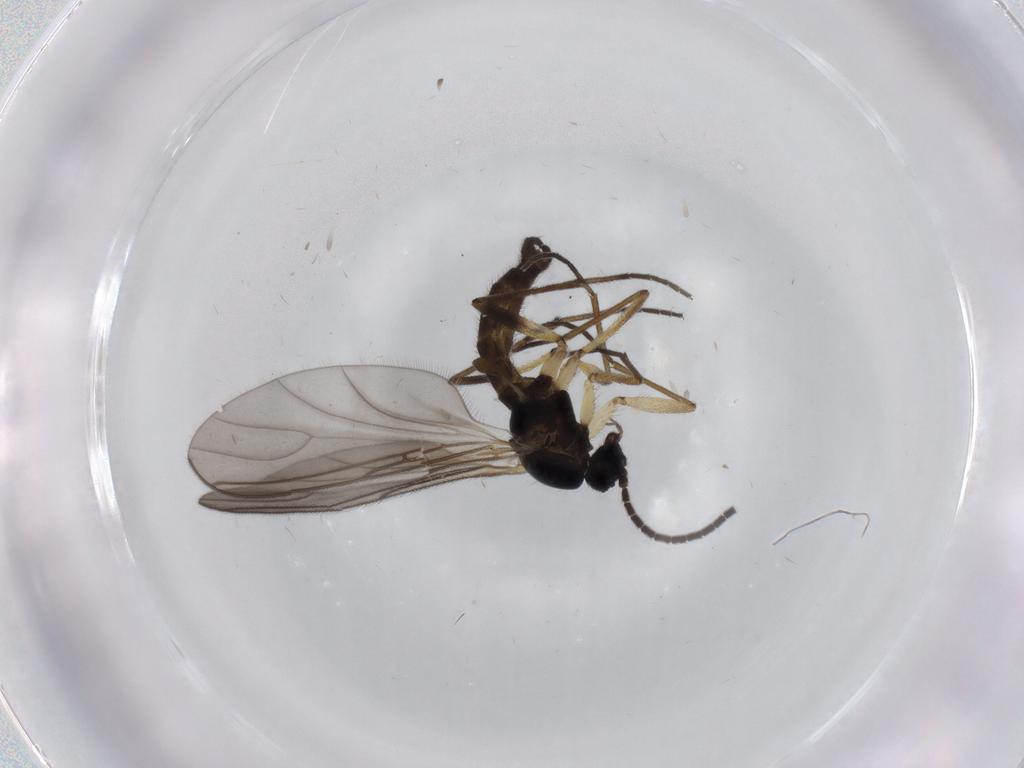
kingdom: Animalia
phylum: Arthropoda
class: Insecta
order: Diptera
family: Sciaridae
